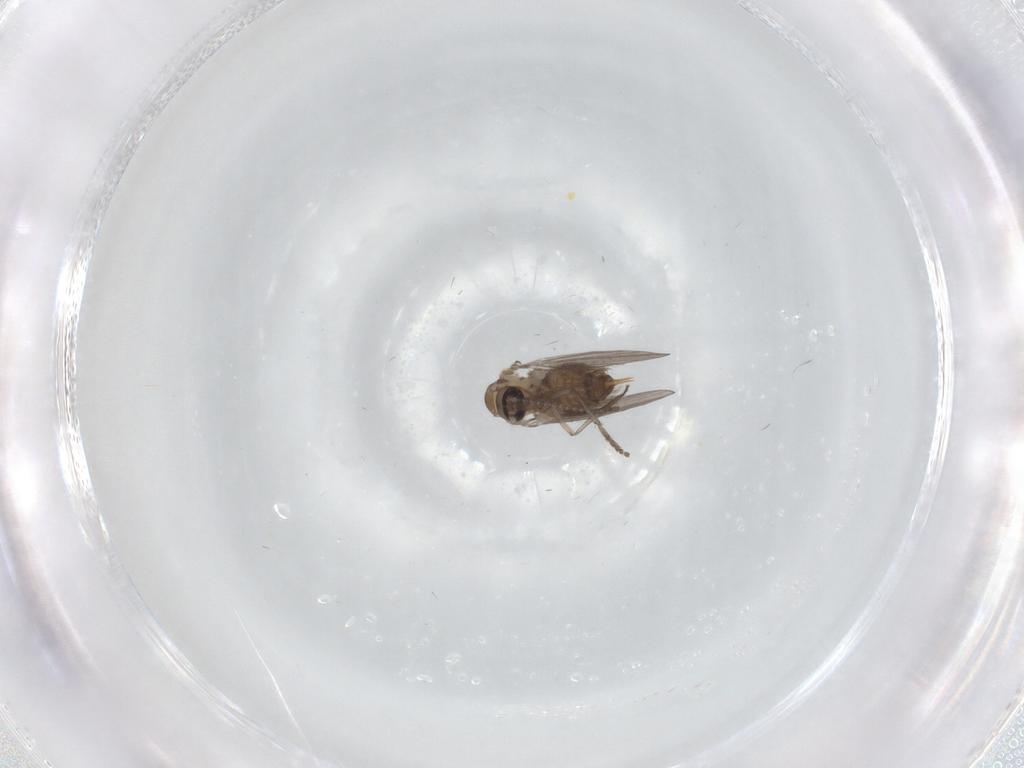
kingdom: Animalia
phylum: Arthropoda
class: Insecta
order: Diptera
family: Psychodidae
